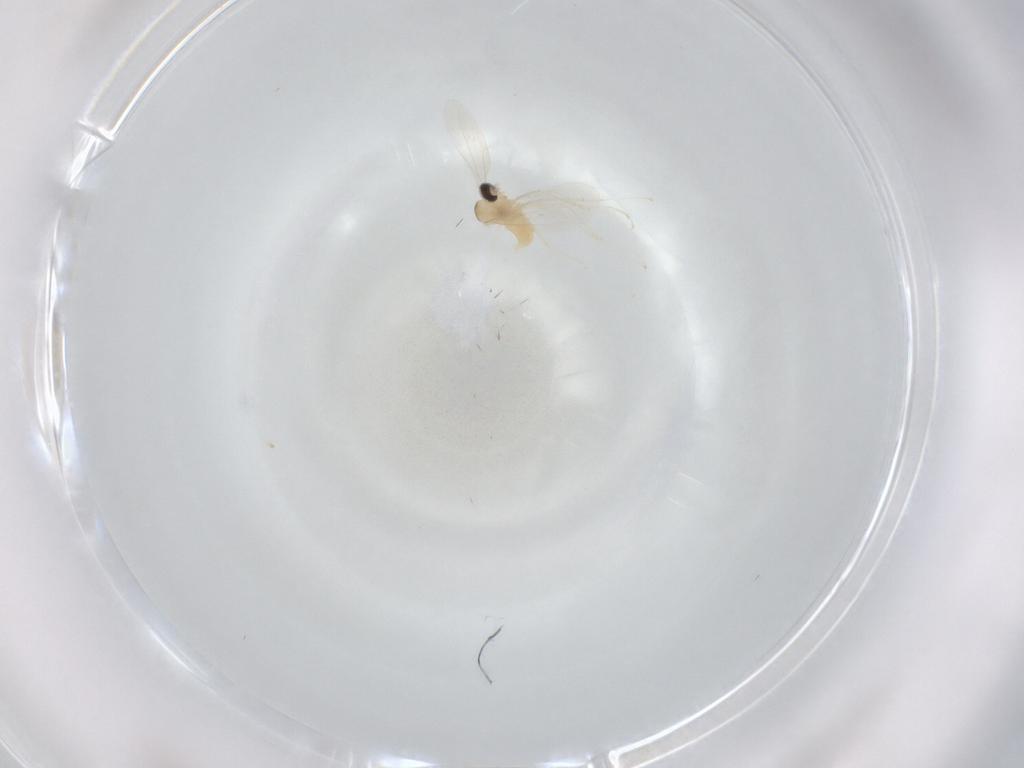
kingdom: Animalia
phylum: Arthropoda
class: Insecta
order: Diptera
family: Cecidomyiidae
